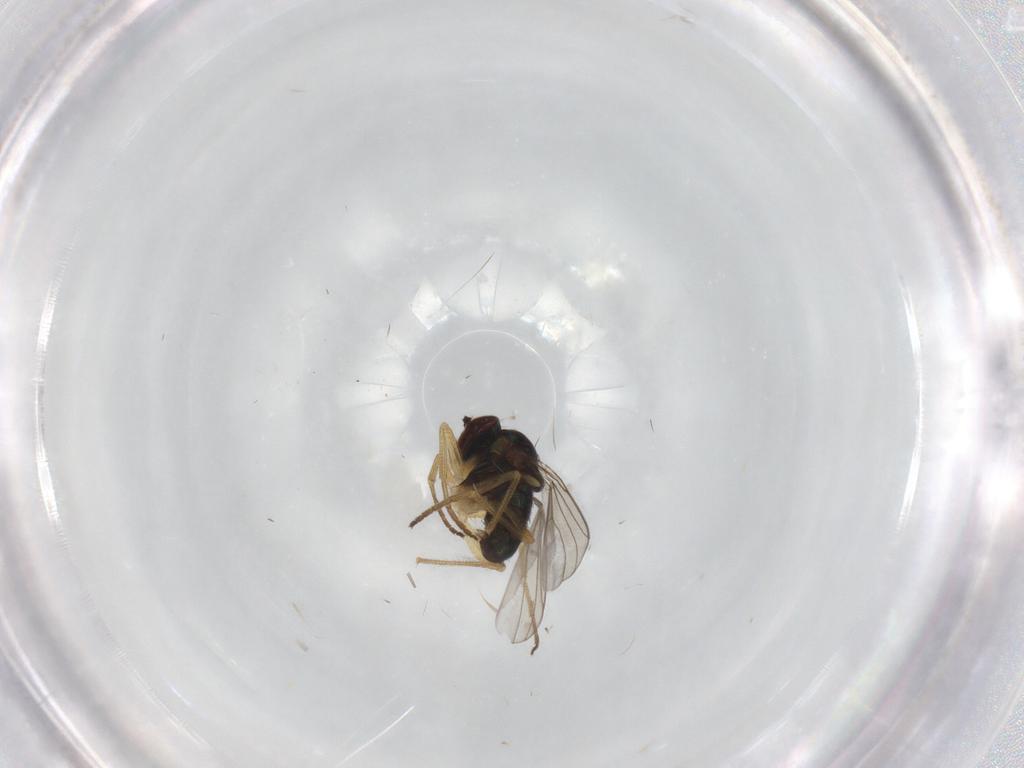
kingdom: Animalia
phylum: Arthropoda
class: Insecta
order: Diptera
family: Dolichopodidae
